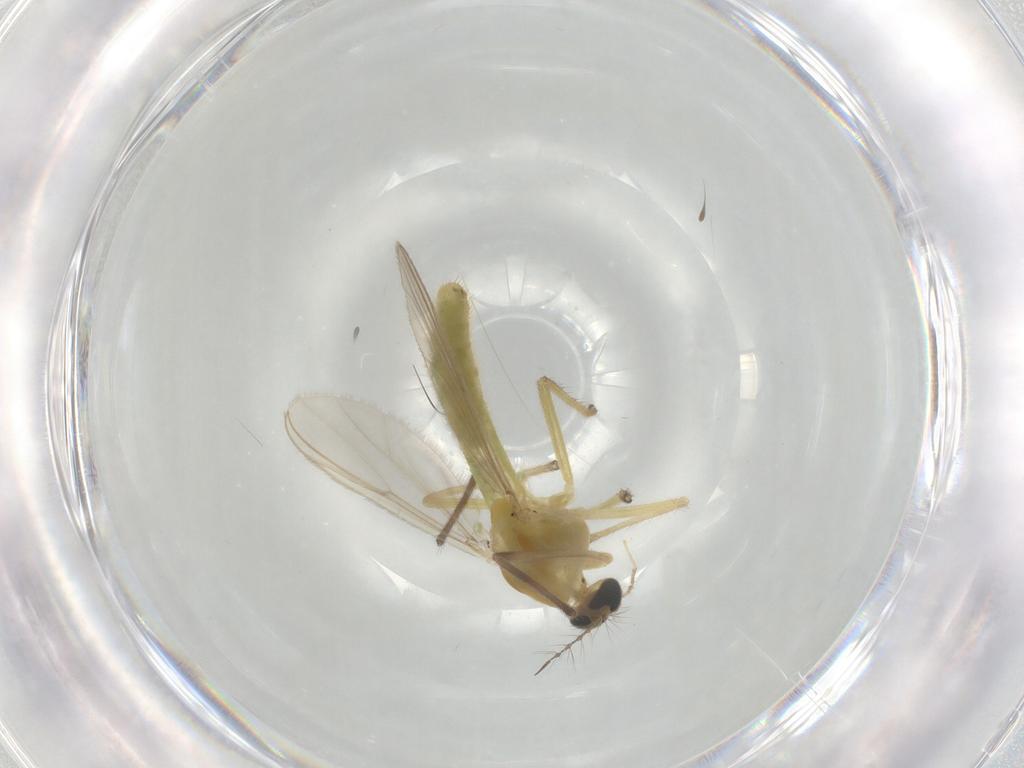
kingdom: Animalia
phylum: Arthropoda
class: Insecta
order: Diptera
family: Chironomidae
